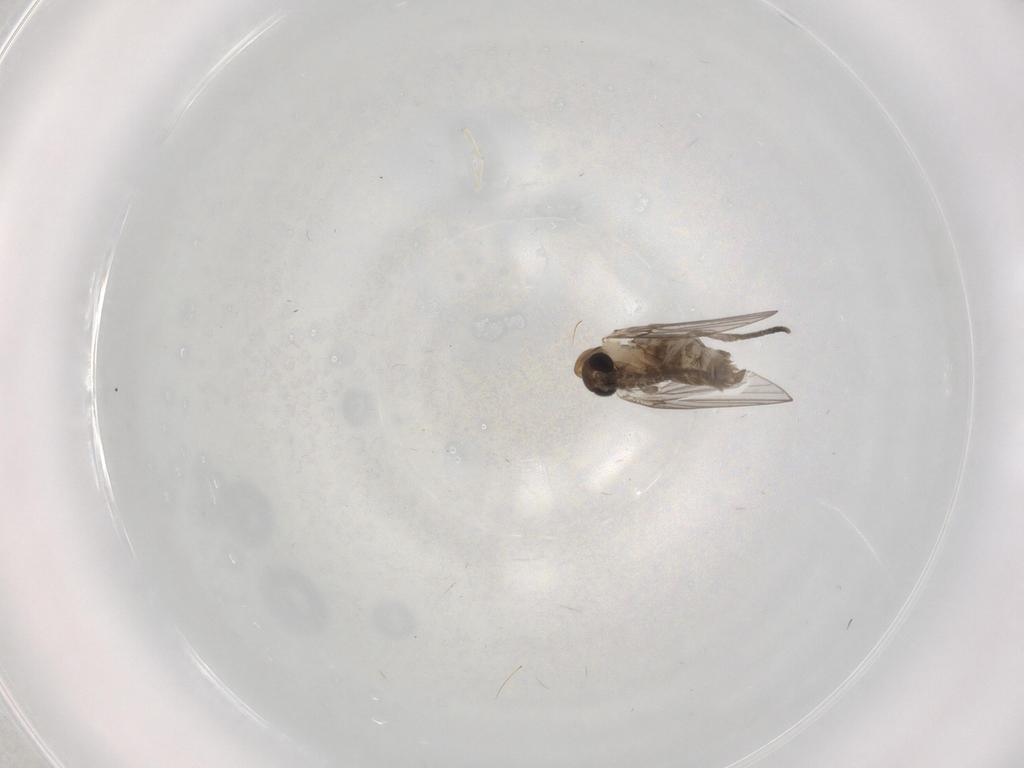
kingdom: Animalia
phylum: Arthropoda
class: Insecta
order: Diptera
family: Psychodidae
